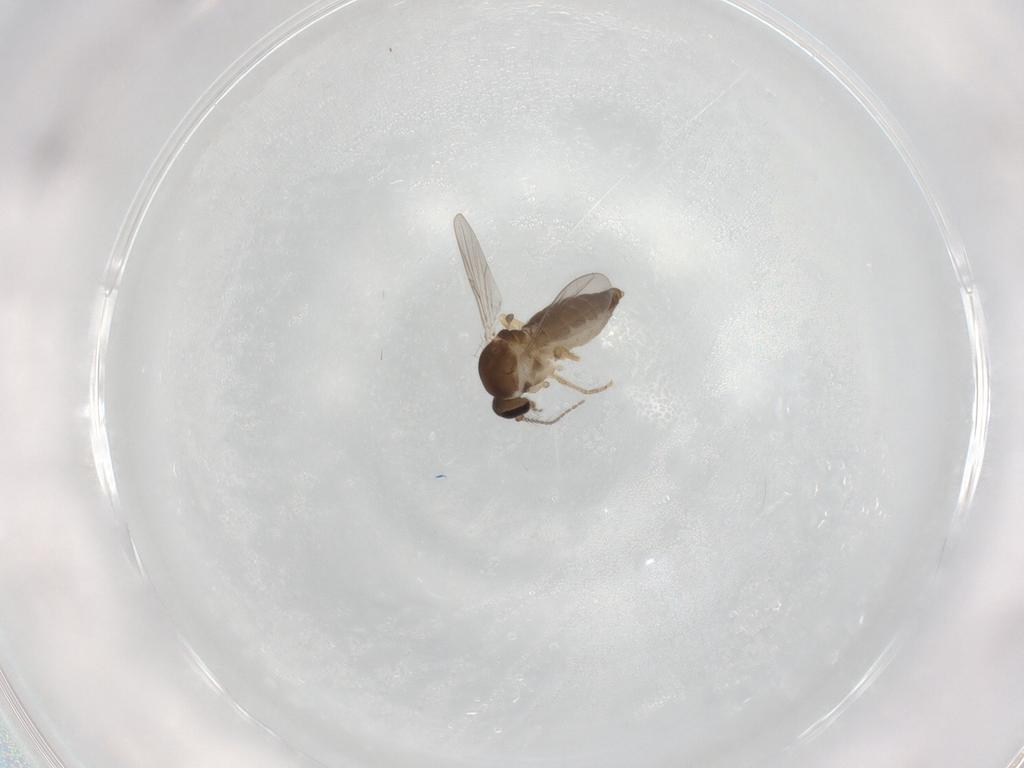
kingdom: Animalia
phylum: Arthropoda
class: Insecta
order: Diptera
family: Ceratopogonidae
